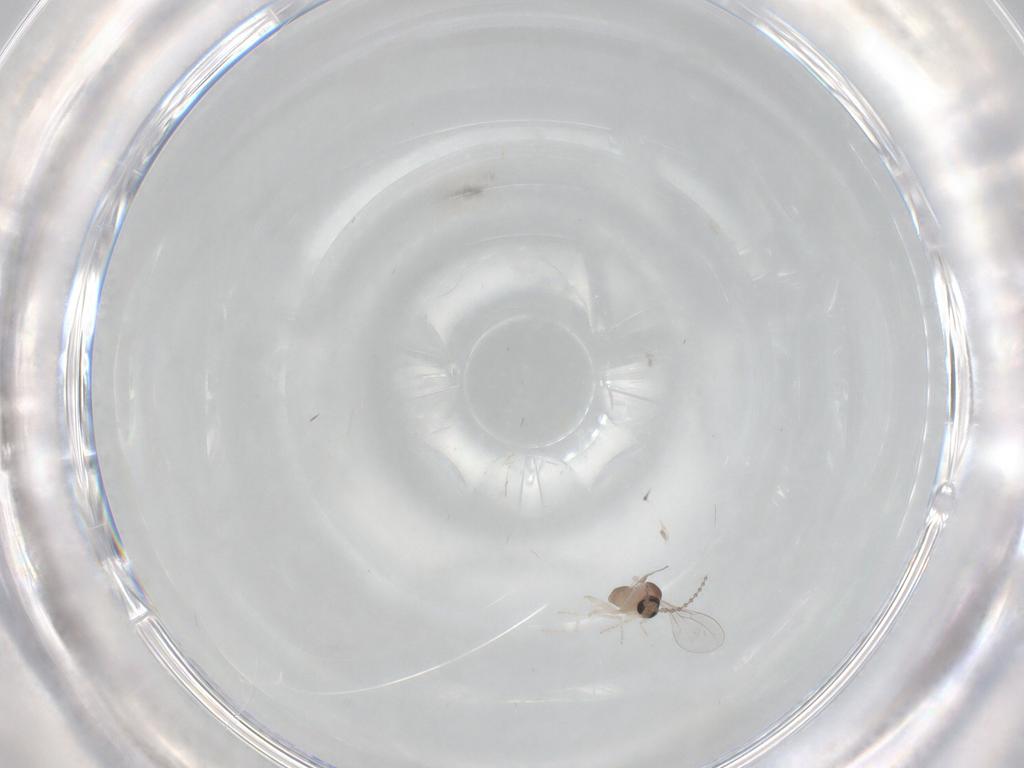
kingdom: Animalia
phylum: Arthropoda
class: Insecta
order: Diptera
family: Cecidomyiidae
